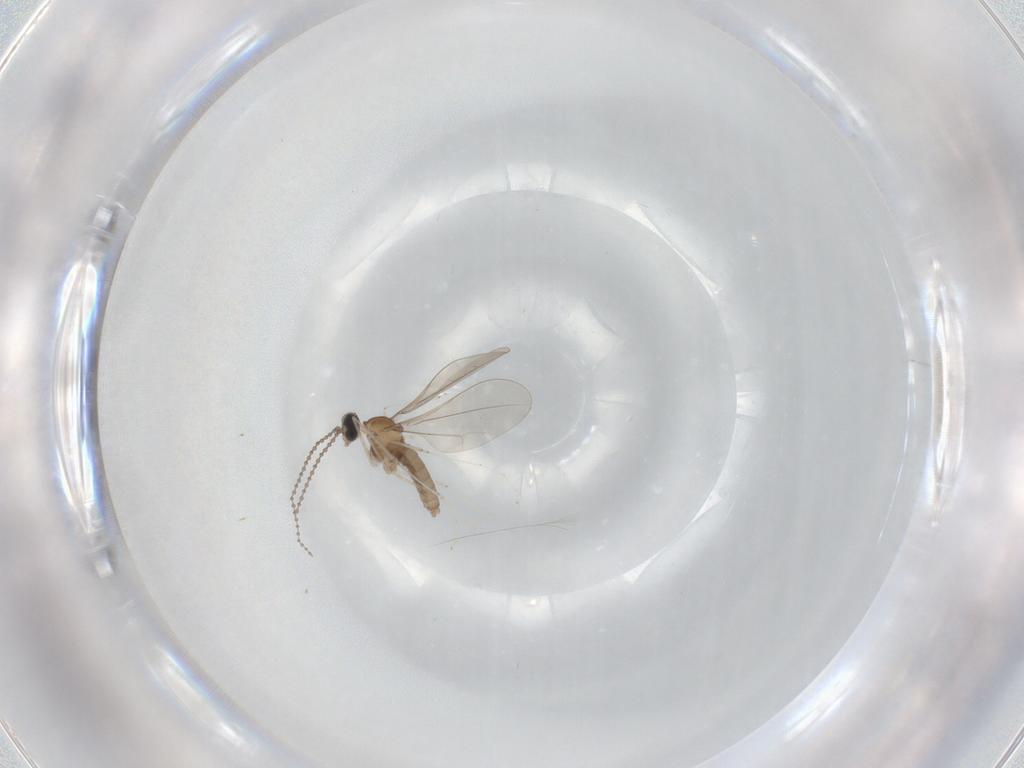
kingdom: Animalia
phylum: Arthropoda
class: Insecta
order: Diptera
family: Cecidomyiidae
